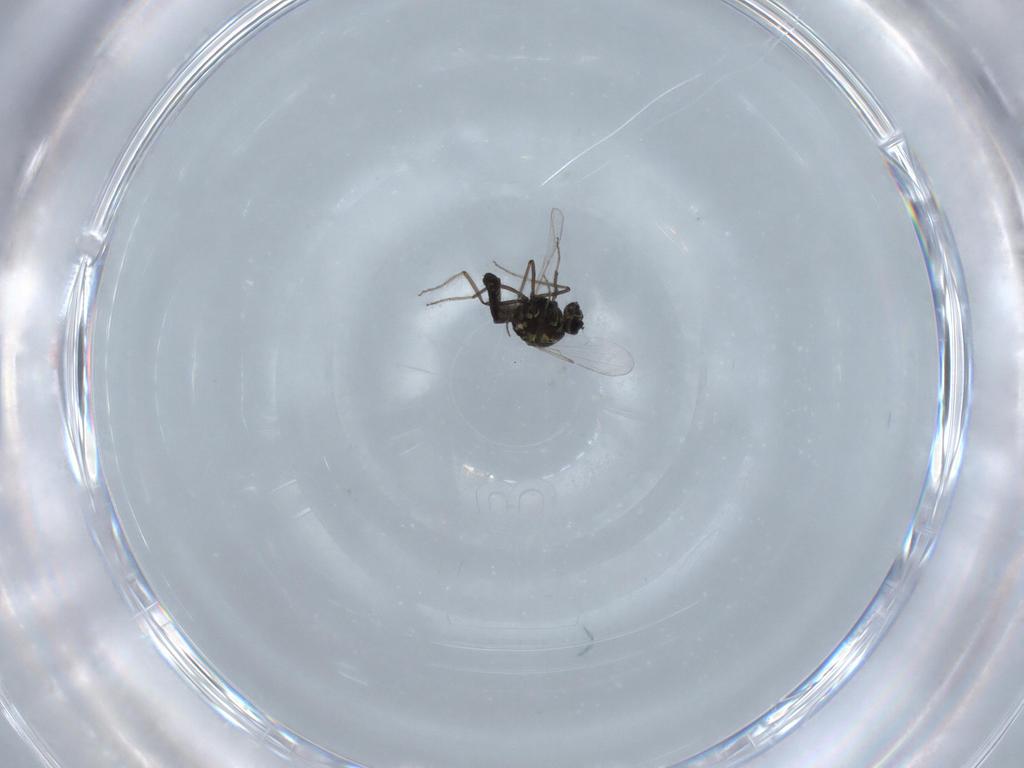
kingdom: Animalia
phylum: Arthropoda
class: Insecta
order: Diptera
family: Ceratopogonidae
